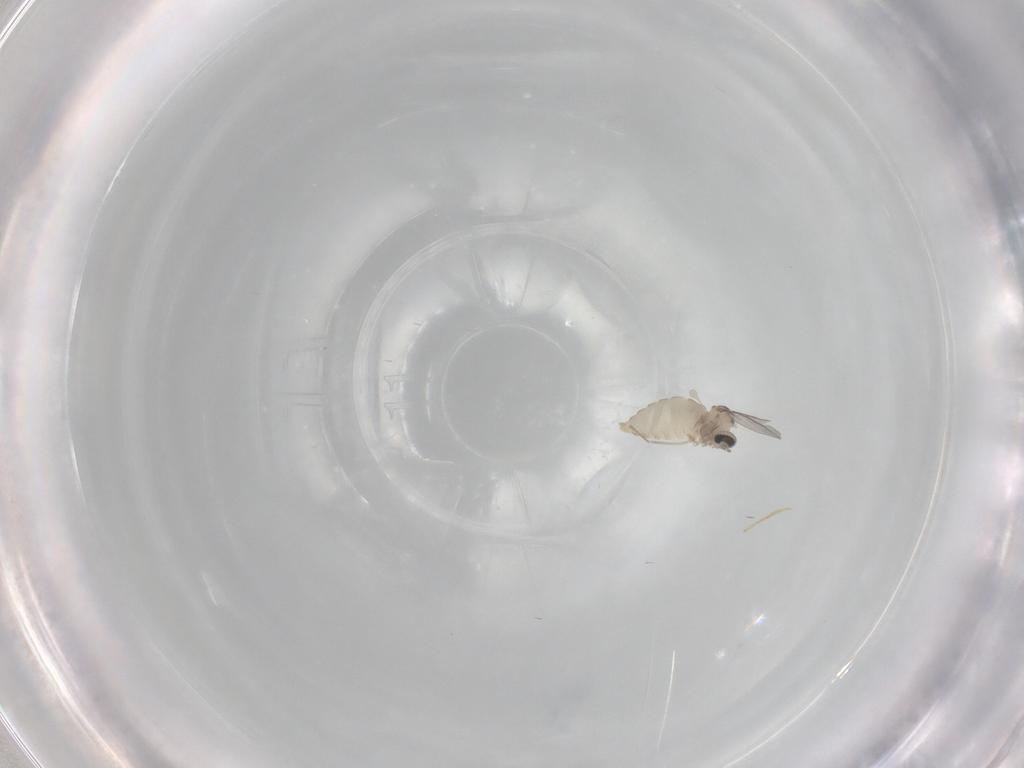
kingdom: Animalia
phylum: Arthropoda
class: Insecta
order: Diptera
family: Cecidomyiidae
